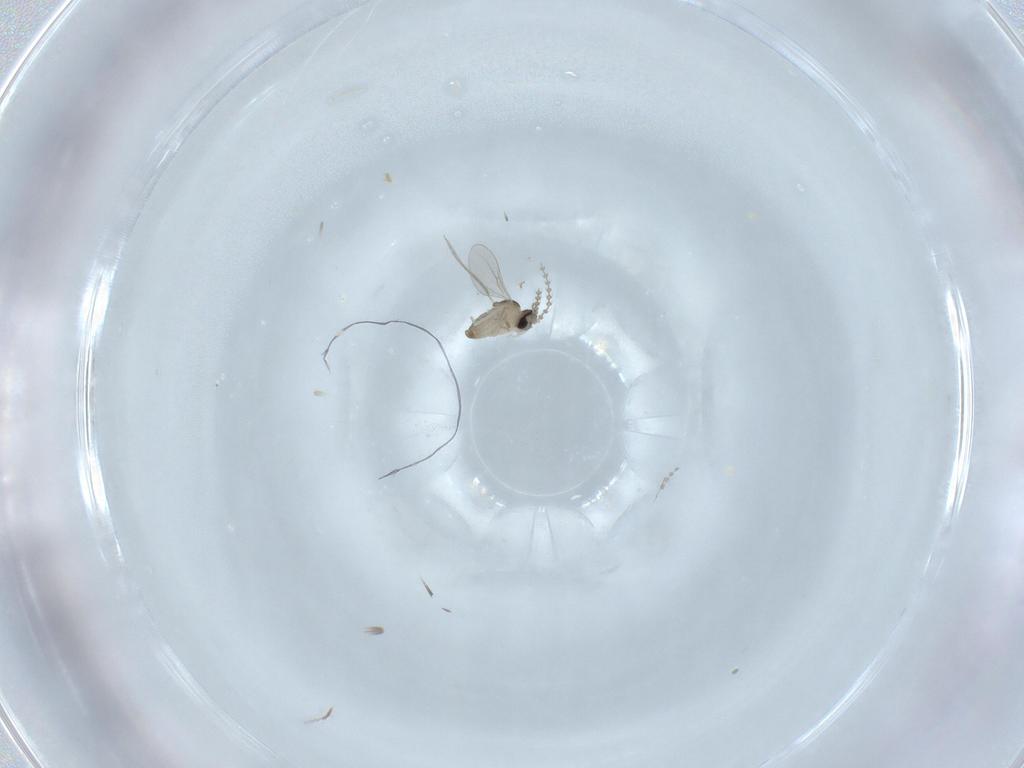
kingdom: Animalia
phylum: Arthropoda
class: Insecta
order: Diptera
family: Cecidomyiidae
